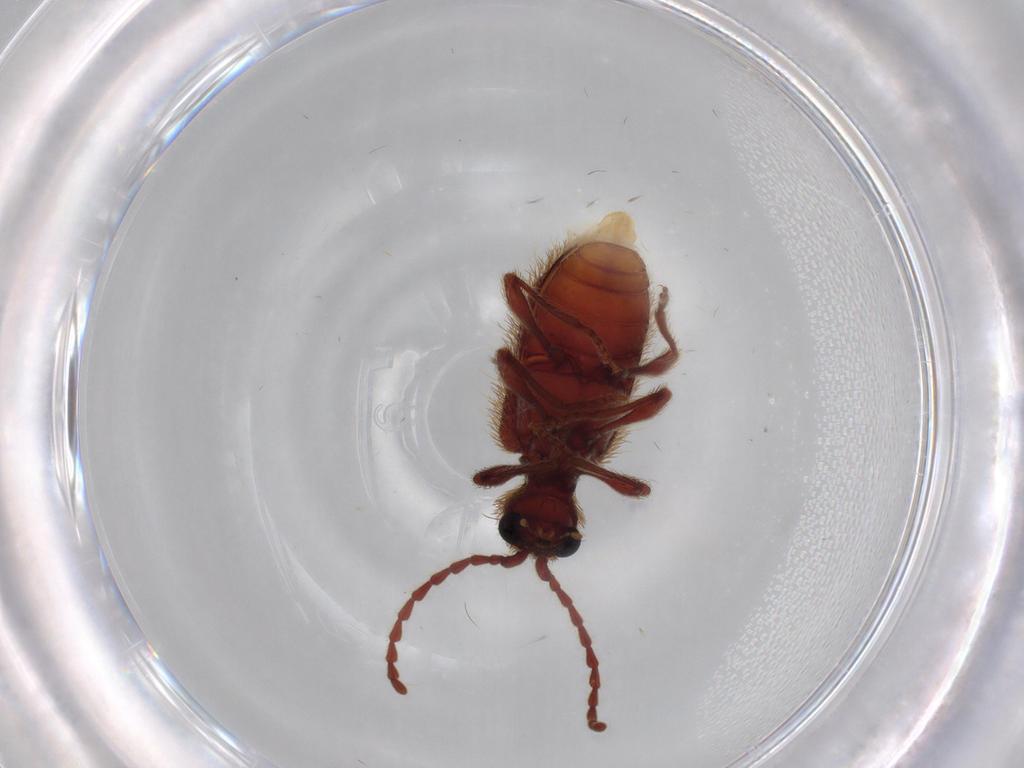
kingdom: Animalia
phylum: Arthropoda
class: Insecta
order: Coleoptera
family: Ptinidae
